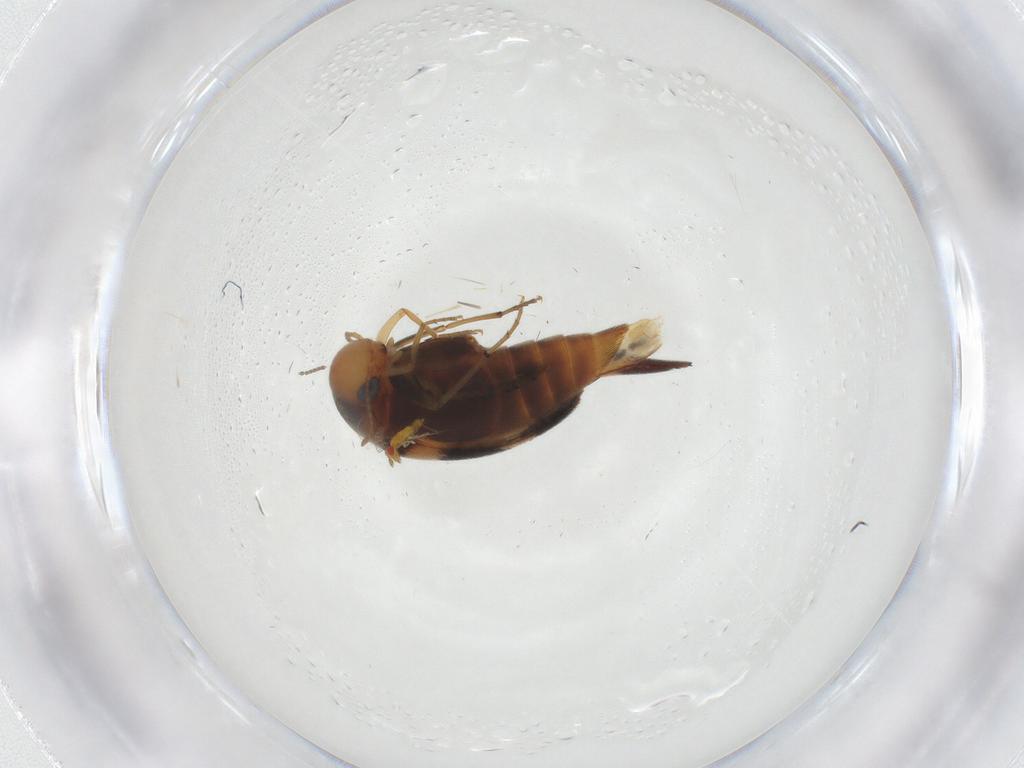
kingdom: Animalia
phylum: Arthropoda
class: Insecta
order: Coleoptera
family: Mordellidae
